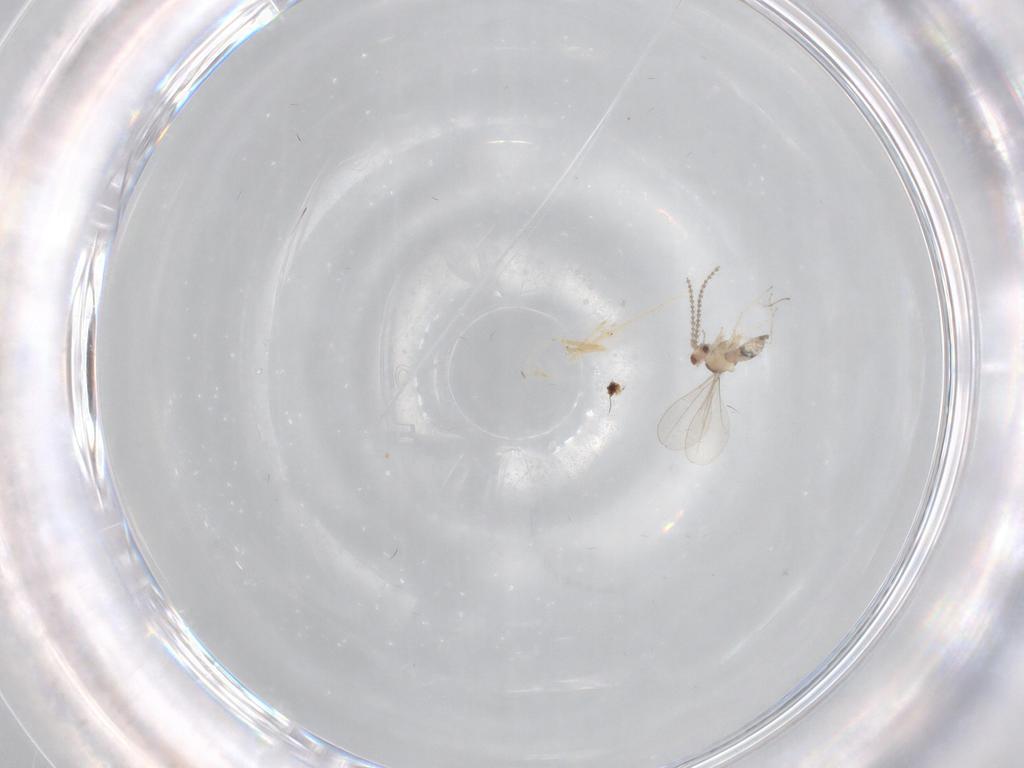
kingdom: Animalia
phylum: Arthropoda
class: Insecta
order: Diptera
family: Cecidomyiidae
